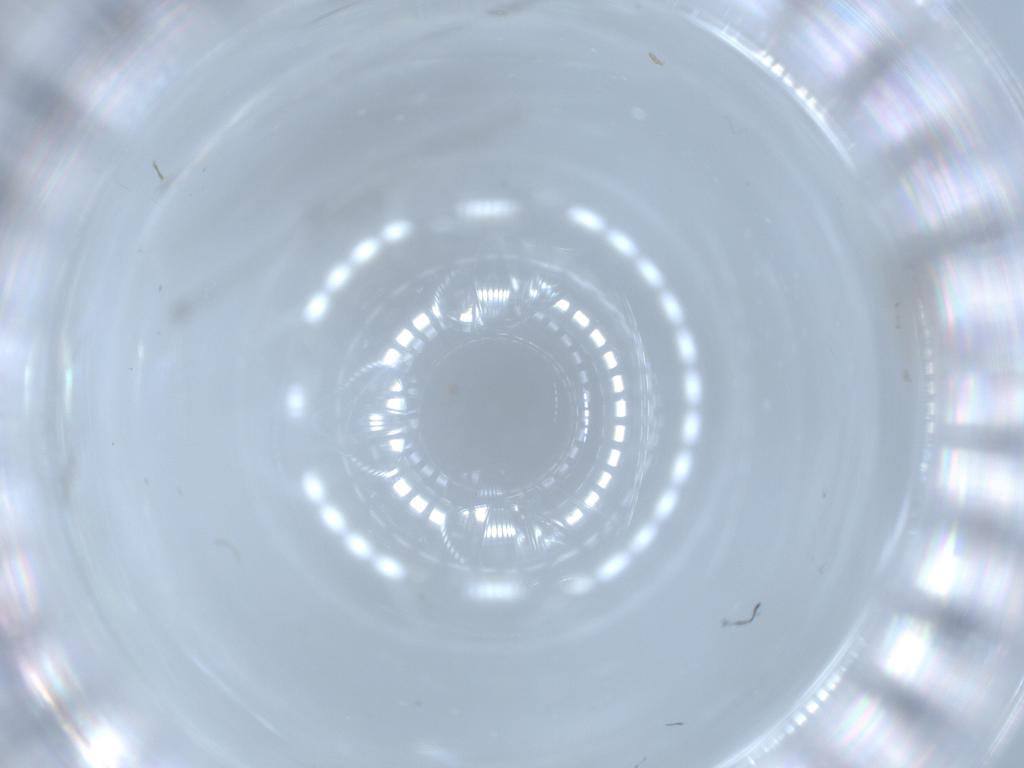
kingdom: Animalia
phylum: Arthropoda
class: Insecta
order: Diptera
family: Cecidomyiidae
